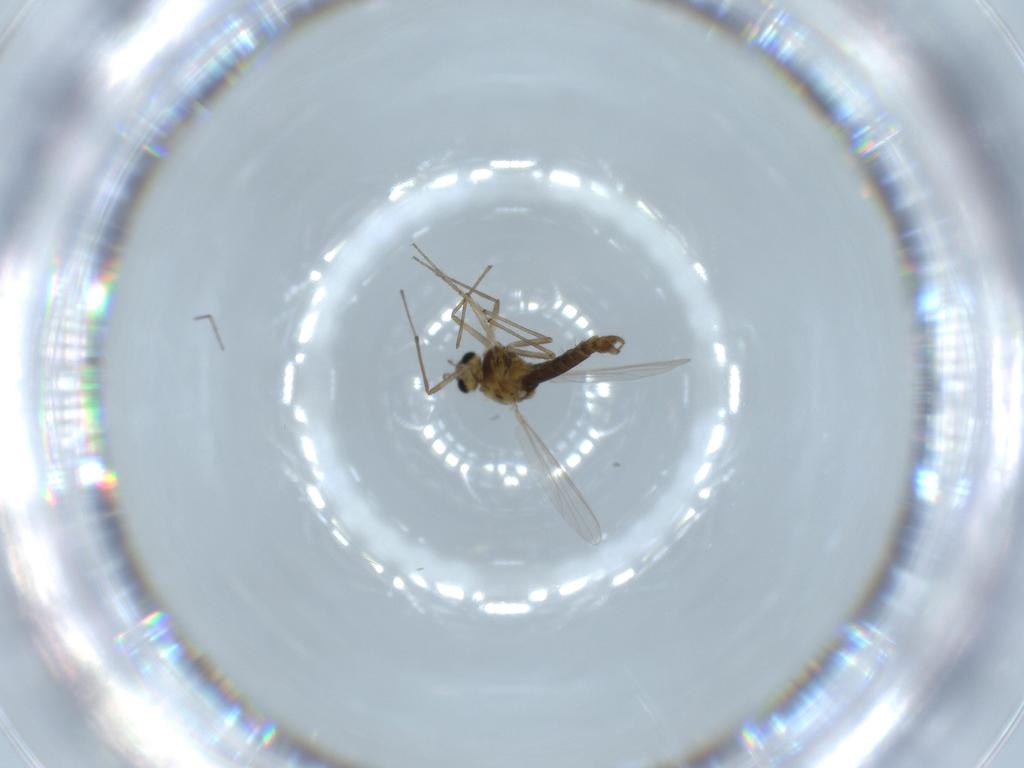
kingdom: Animalia
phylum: Arthropoda
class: Insecta
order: Diptera
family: Chironomidae
